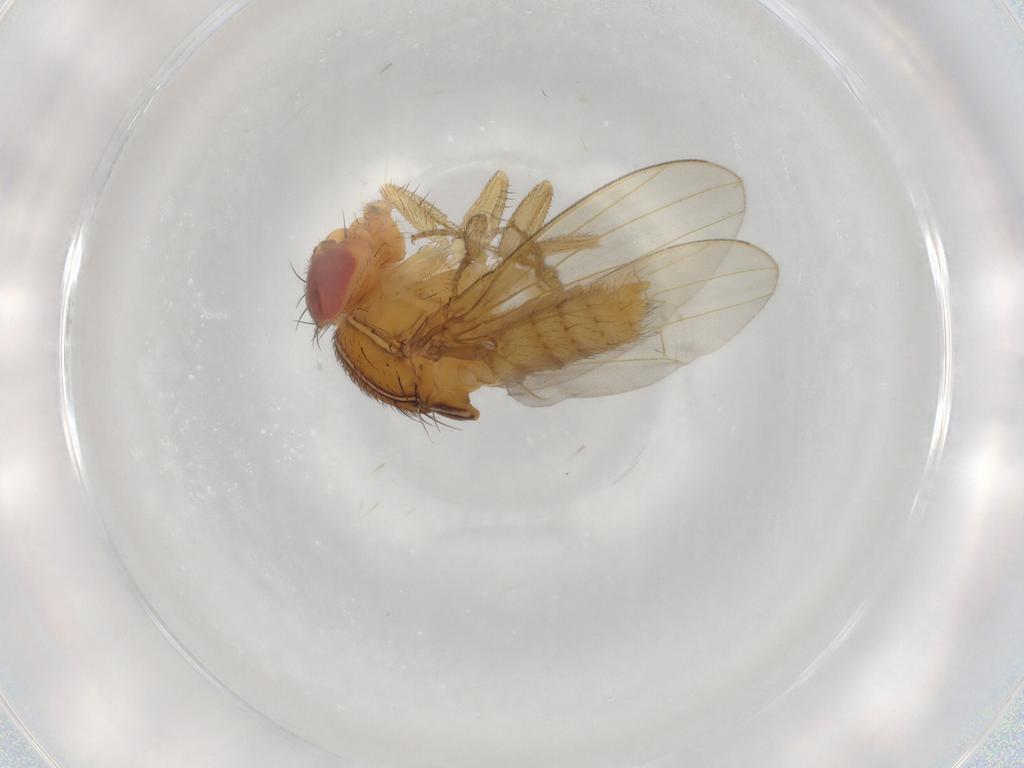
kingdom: Animalia
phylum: Arthropoda
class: Insecta
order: Diptera
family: Drosophilidae
